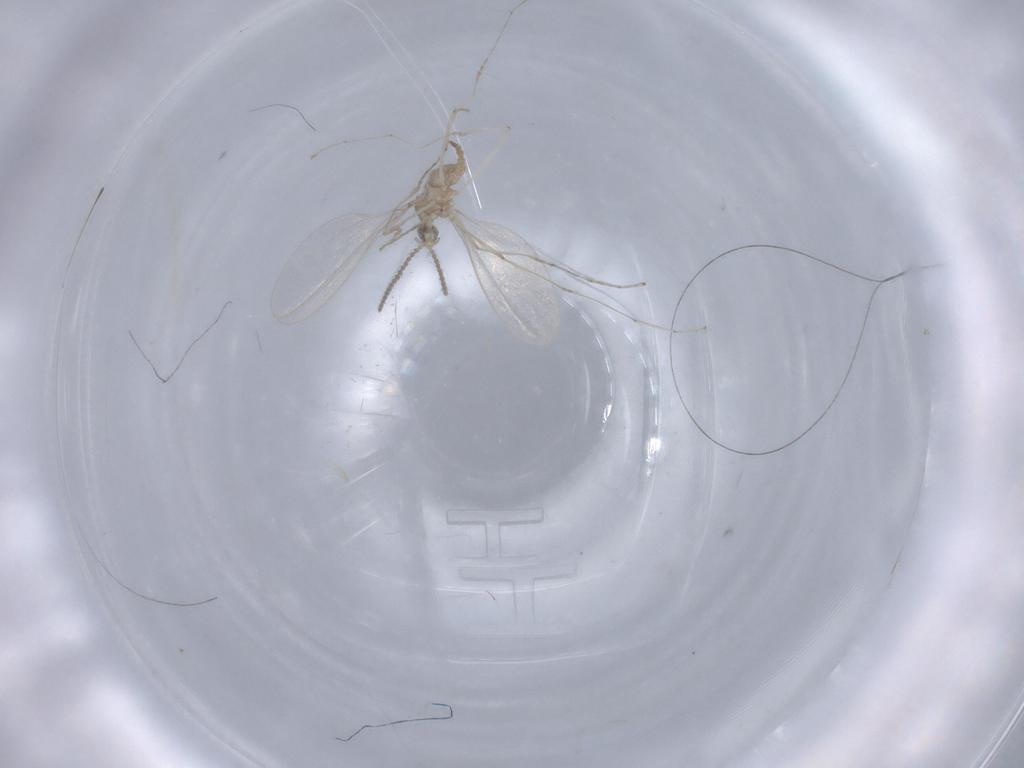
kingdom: Animalia
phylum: Arthropoda
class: Insecta
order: Diptera
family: Cecidomyiidae
